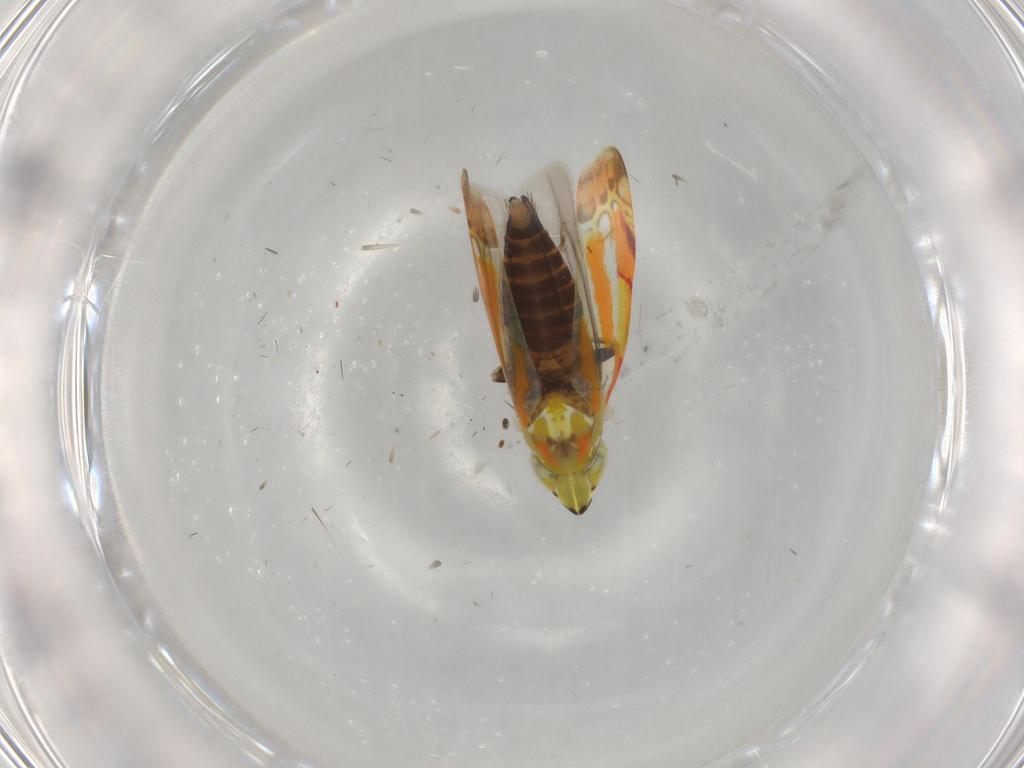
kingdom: Animalia
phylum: Arthropoda
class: Insecta
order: Hemiptera
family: Cicadellidae
